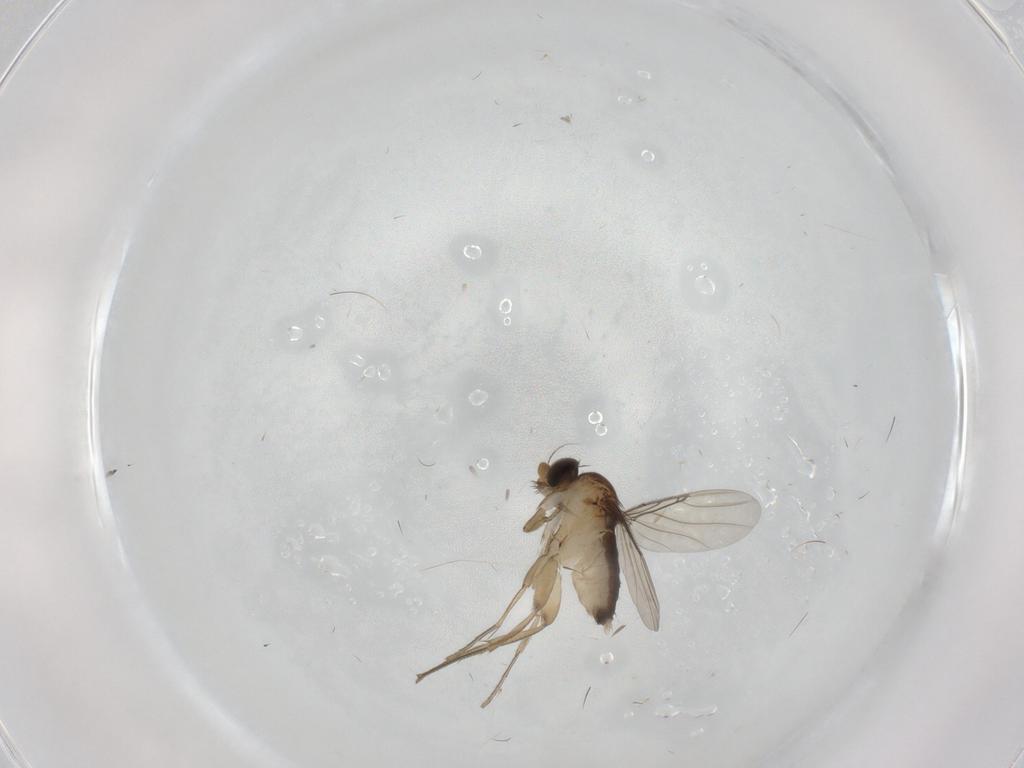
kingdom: Animalia
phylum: Arthropoda
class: Insecta
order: Diptera
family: Phoridae
